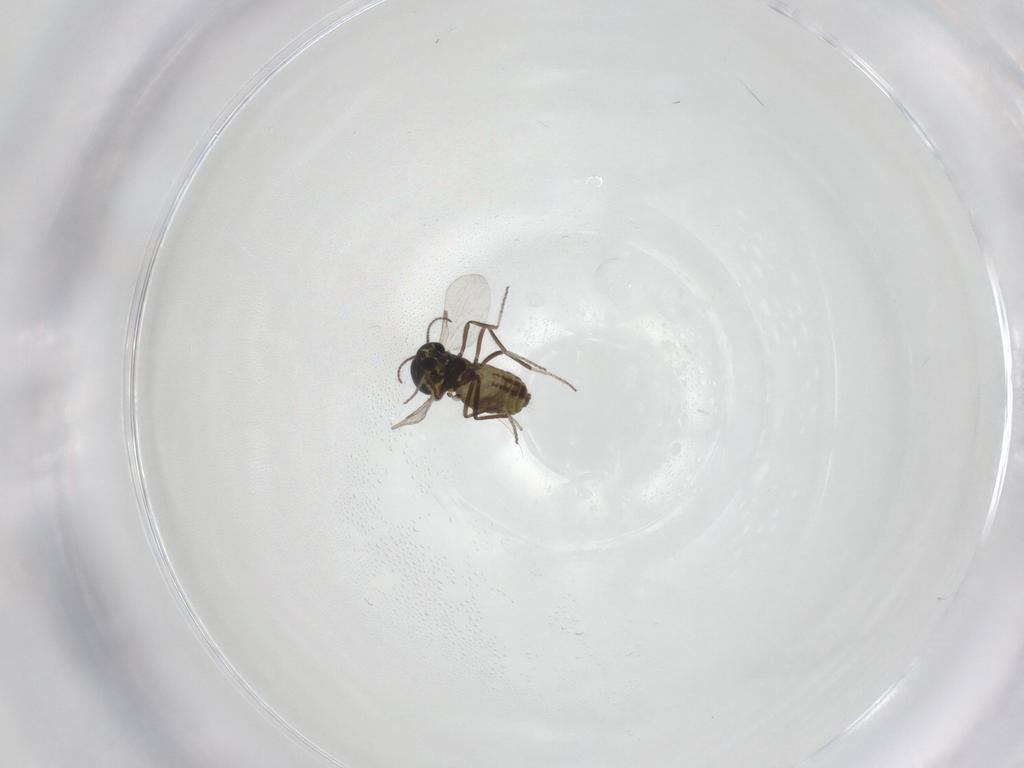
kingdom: Animalia
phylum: Arthropoda
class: Insecta
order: Diptera
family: Ceratopogonidae
